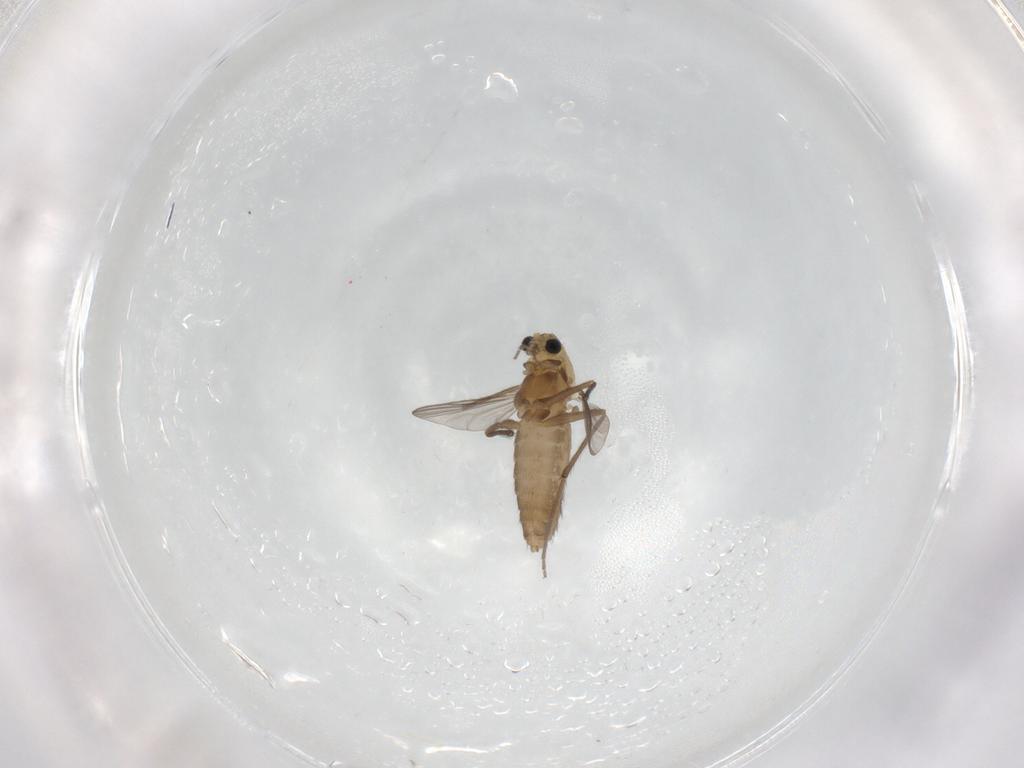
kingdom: Animalia
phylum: Arthropoda
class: Insecta
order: Diptera
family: Chironomidae
